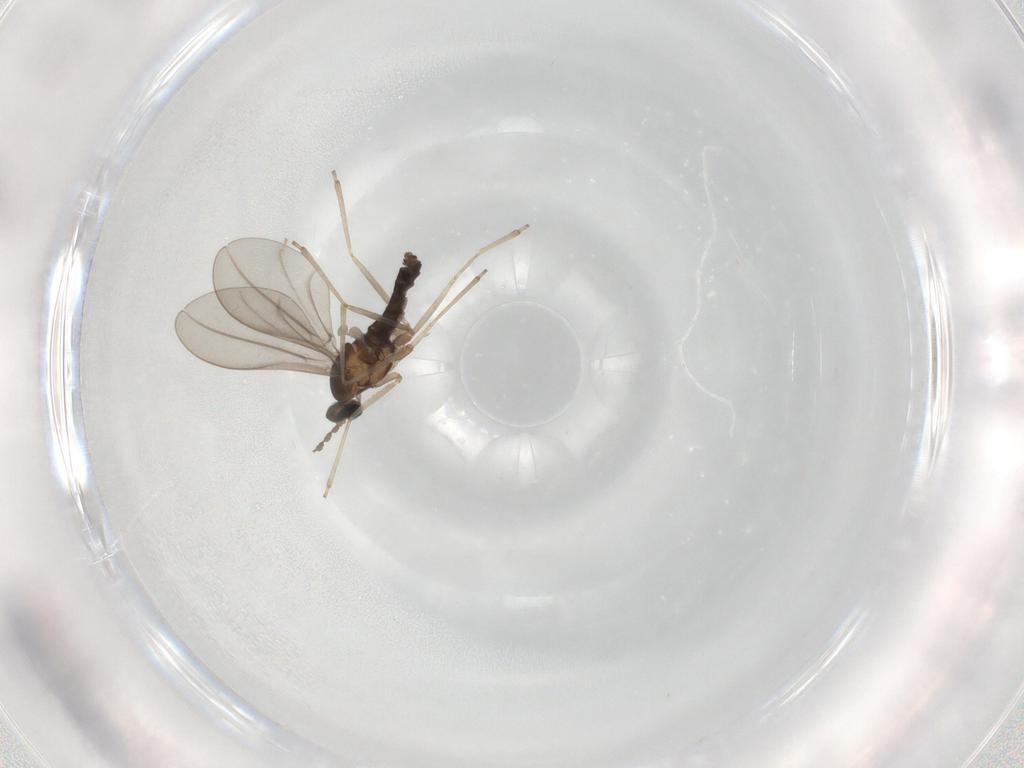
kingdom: Animalia
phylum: Arthropoda
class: Insecta
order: Diptera
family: Cecidomyiidae
